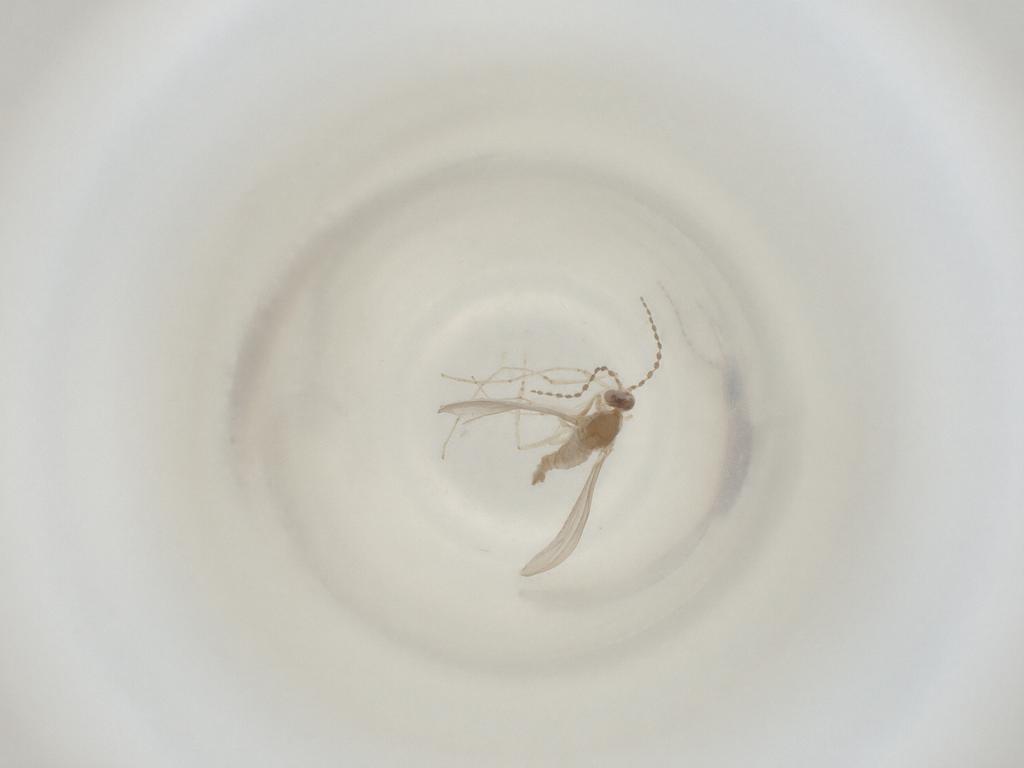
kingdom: Animalia
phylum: Arthropoda
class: Insecta
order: Diptera
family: Cecidomyiidae
